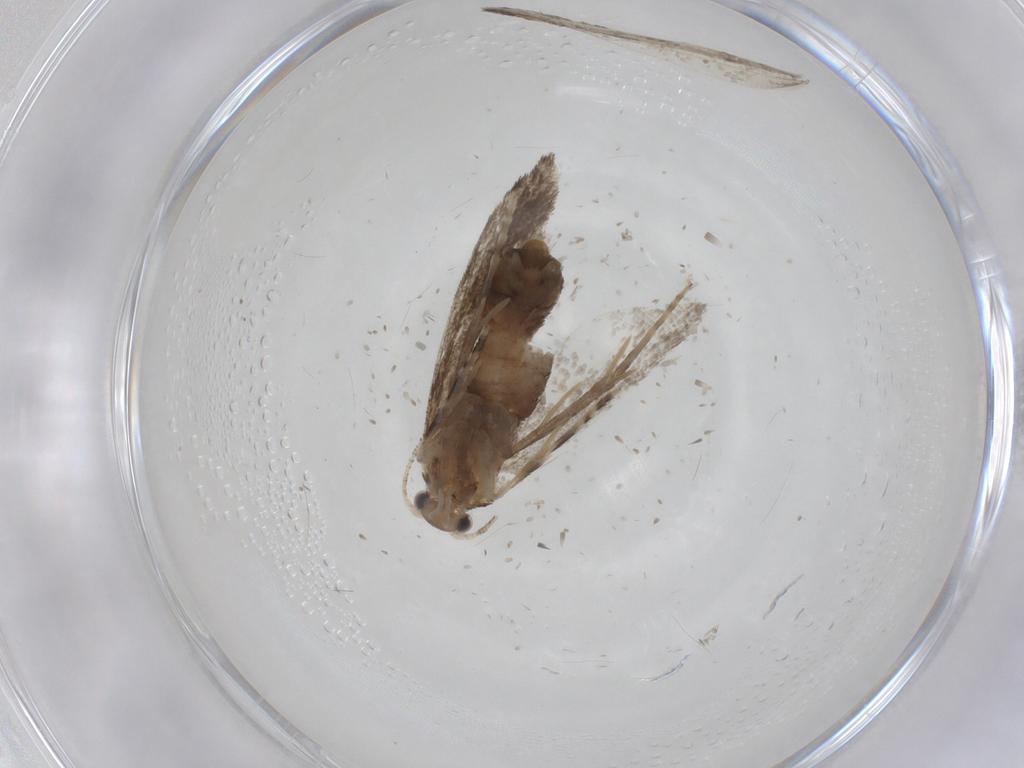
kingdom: Animalia
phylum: Arthropoda
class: Insecta
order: Lepidoptera
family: Tineidae
